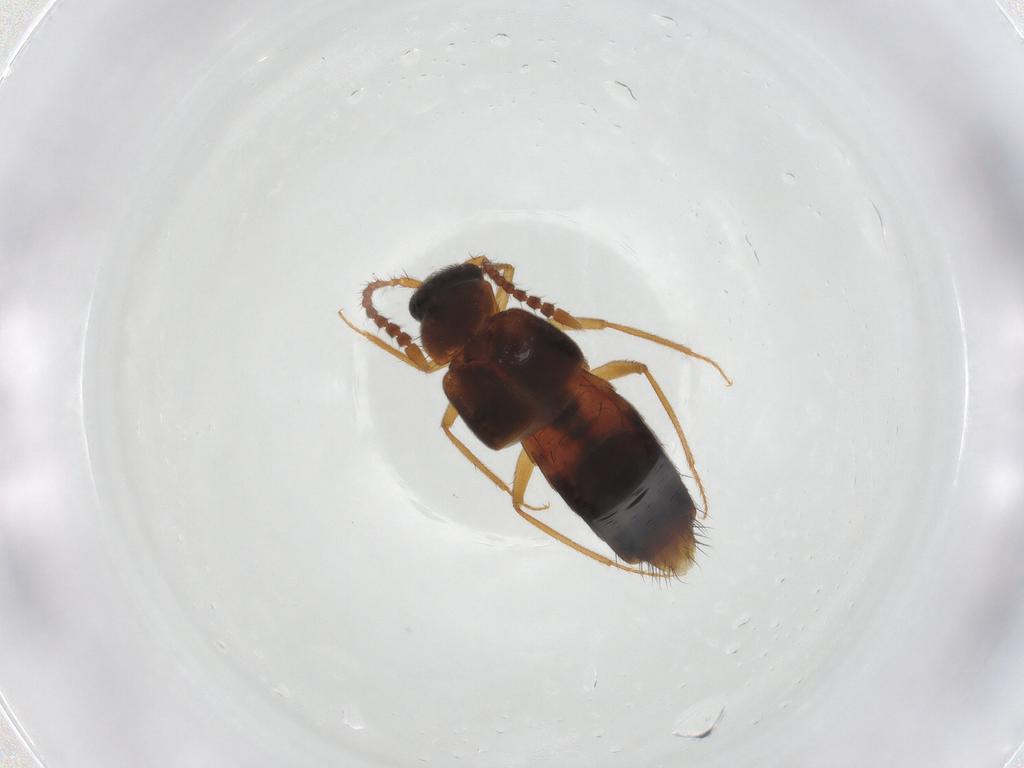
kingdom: Animalia
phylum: Arthropoda
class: Insecta
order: Coleoptera
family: Staphylinidae
